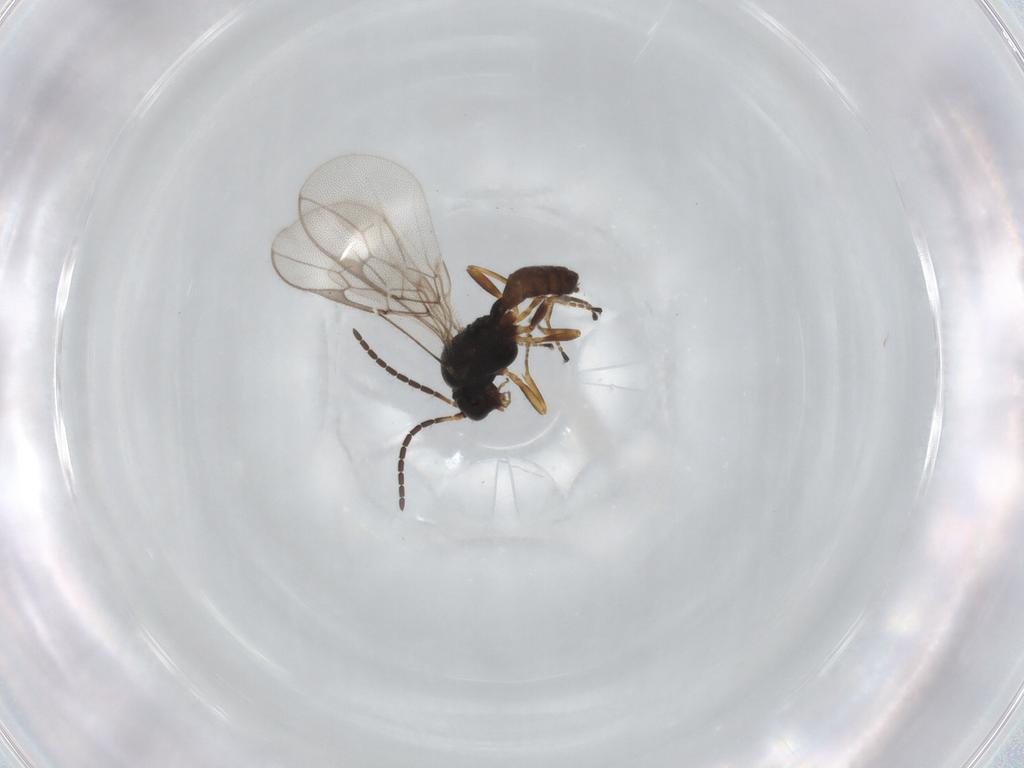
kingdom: Animalia
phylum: Arthropoda
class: Insecta
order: Hymenoptera
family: Braconidae
